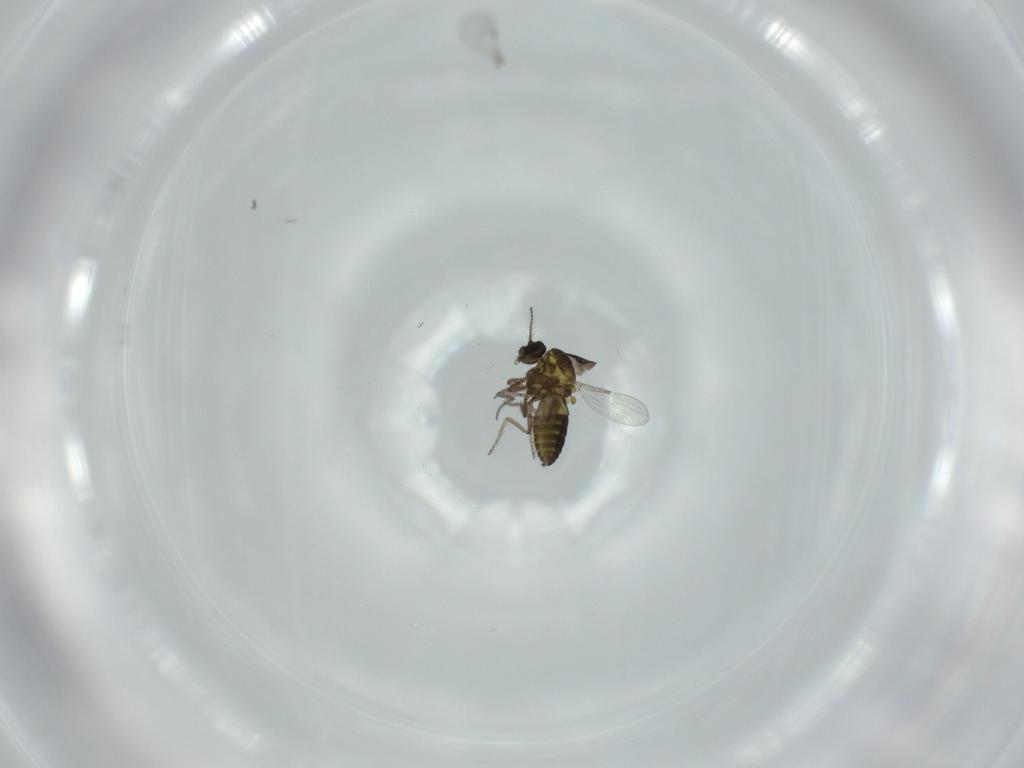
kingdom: Animalia
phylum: Arthropoda
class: Insecta
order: Diptera
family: Ceratopogonidae
